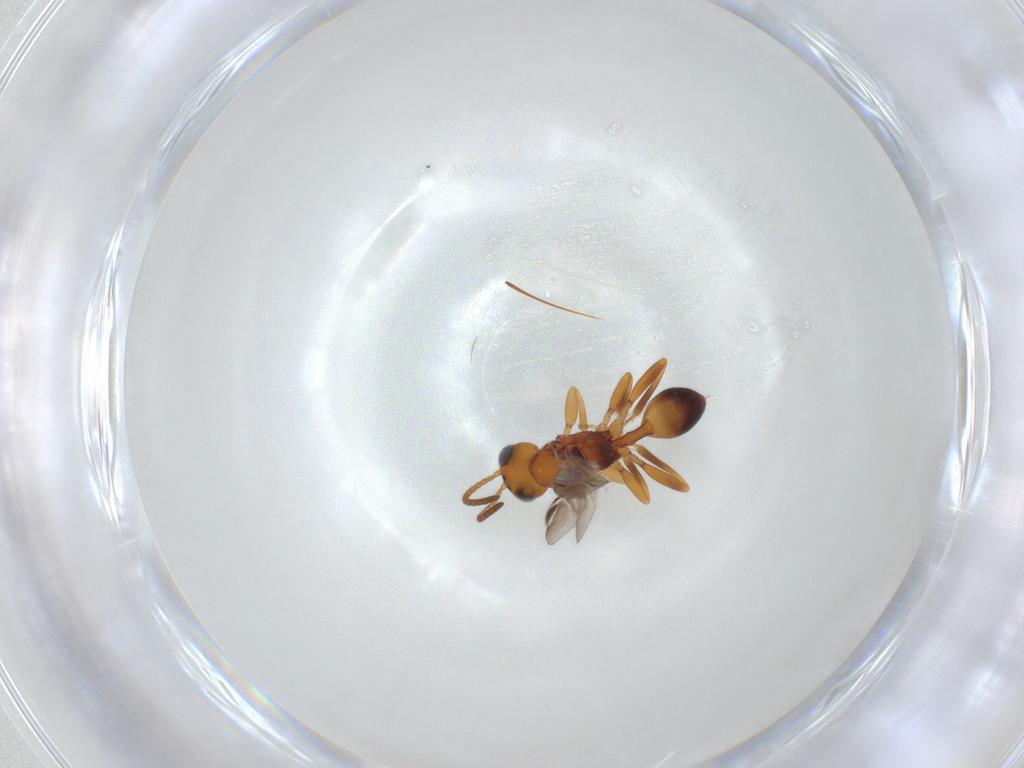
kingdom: Animalia
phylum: Arthropoda
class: Insecta
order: Hymenoptera
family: Braconidae
